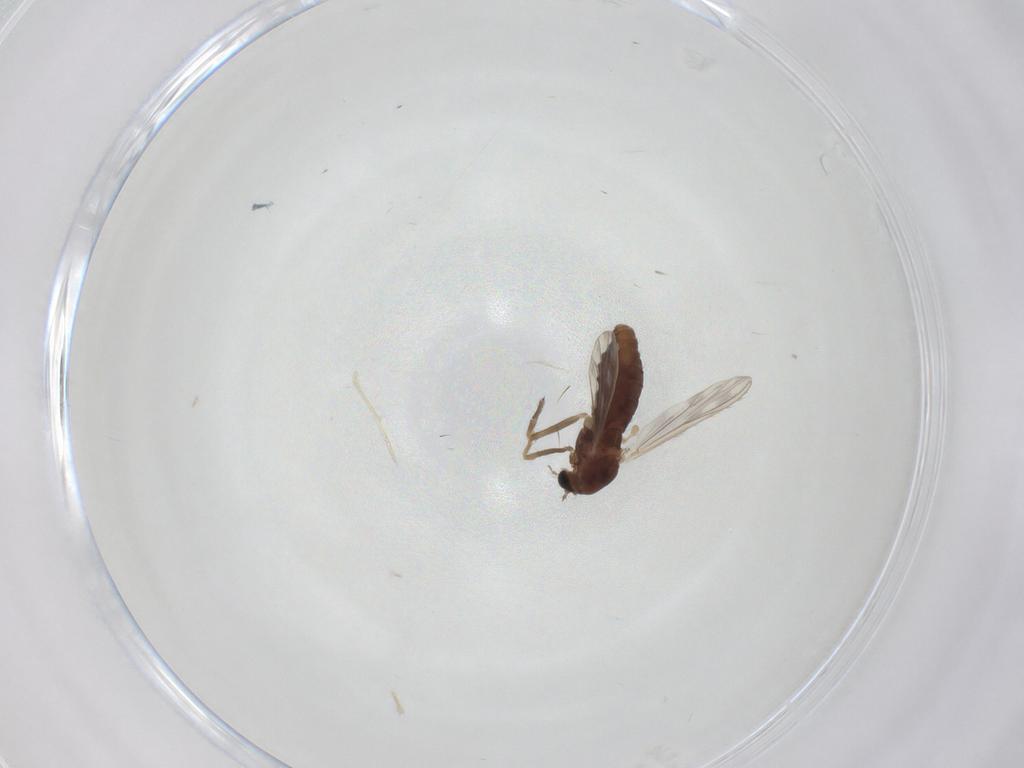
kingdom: Animalia
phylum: Arthropoda
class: Insecta
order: Diptera
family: Chironomidae
